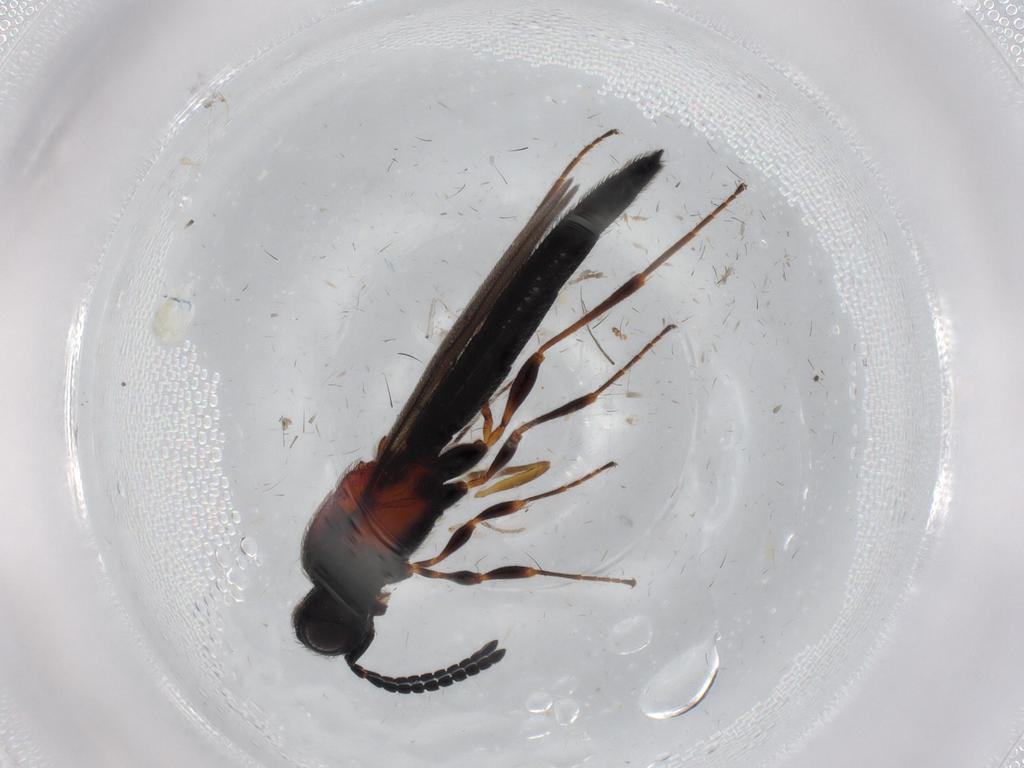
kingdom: Animalia
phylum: Arthropoda
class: Insecta
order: Hymenoptera
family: Scelionidae
